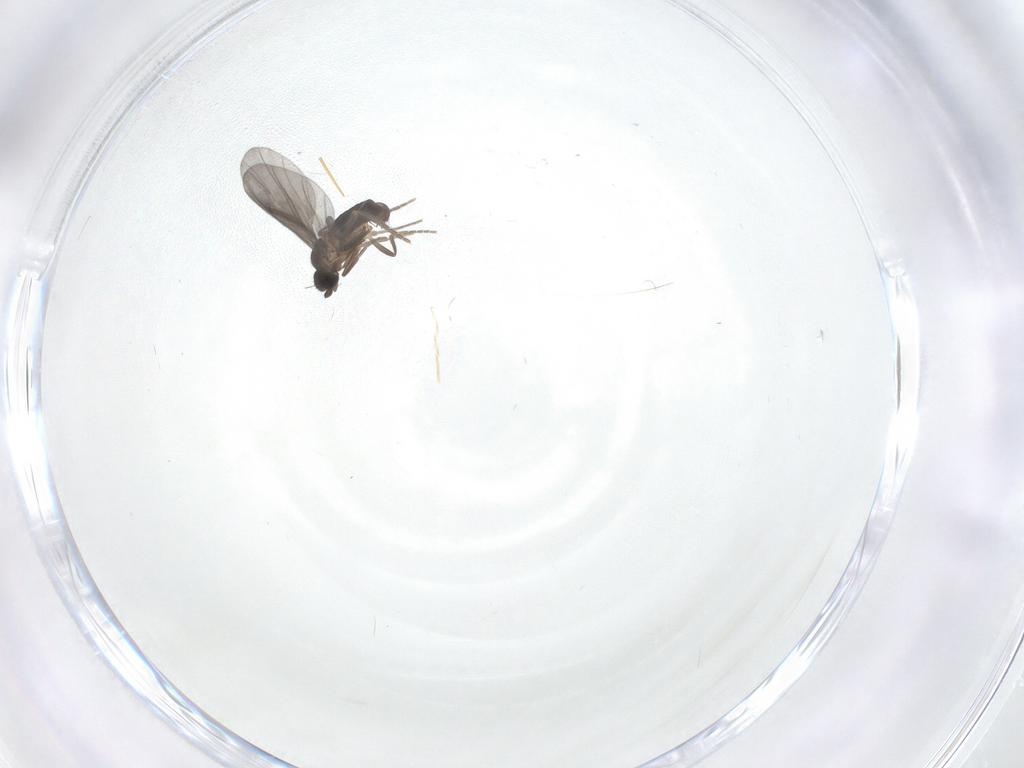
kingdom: Animalia
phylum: Arthropoda
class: Insecta
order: Diptera
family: Phoridae
